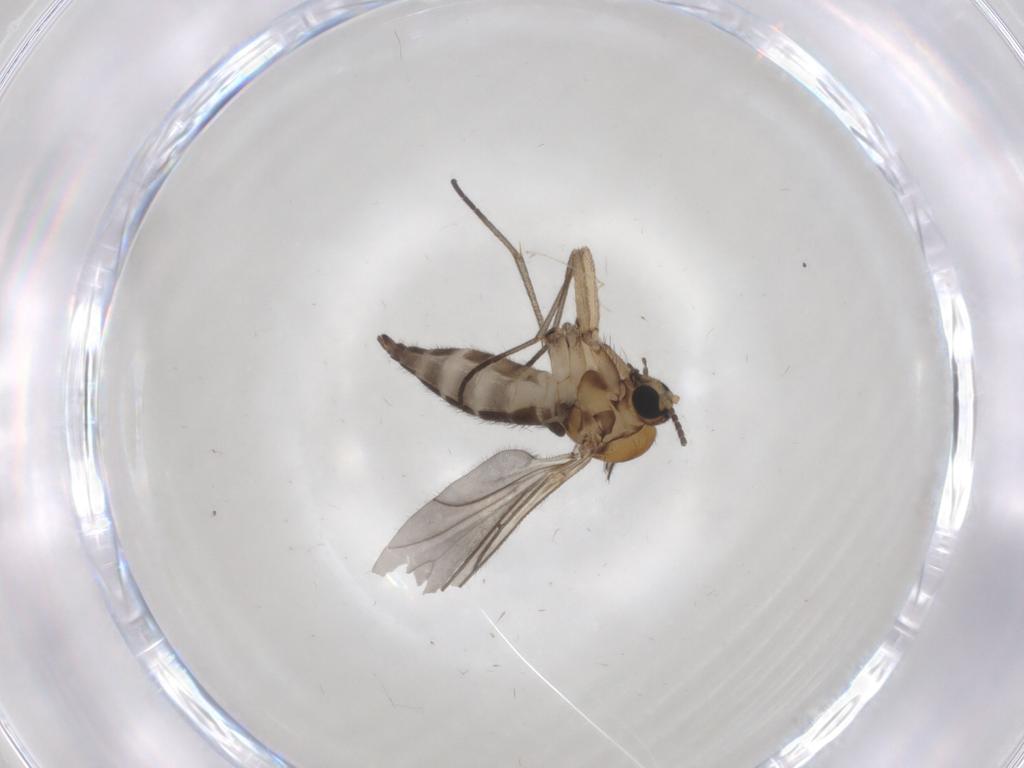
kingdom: Animalia
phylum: Arthropoda
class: Insecta
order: Diptera
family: Sciaridae
